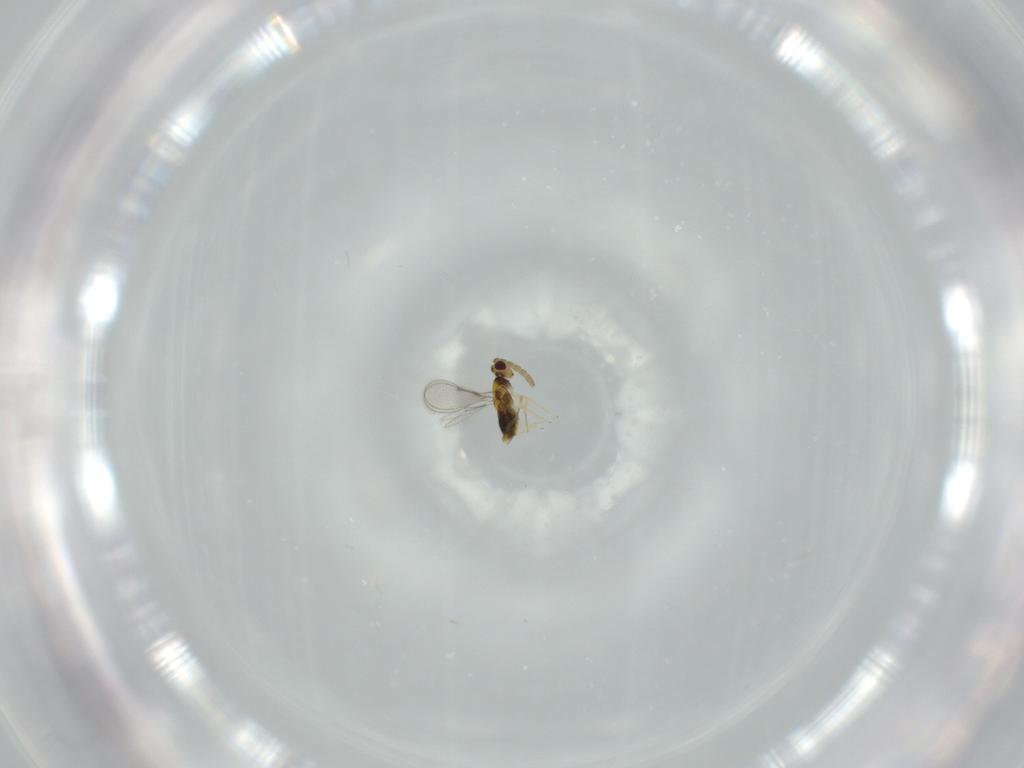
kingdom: Animalia
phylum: Arthropoda
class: Insecta
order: Hymenoptera
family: Aphelinidae
